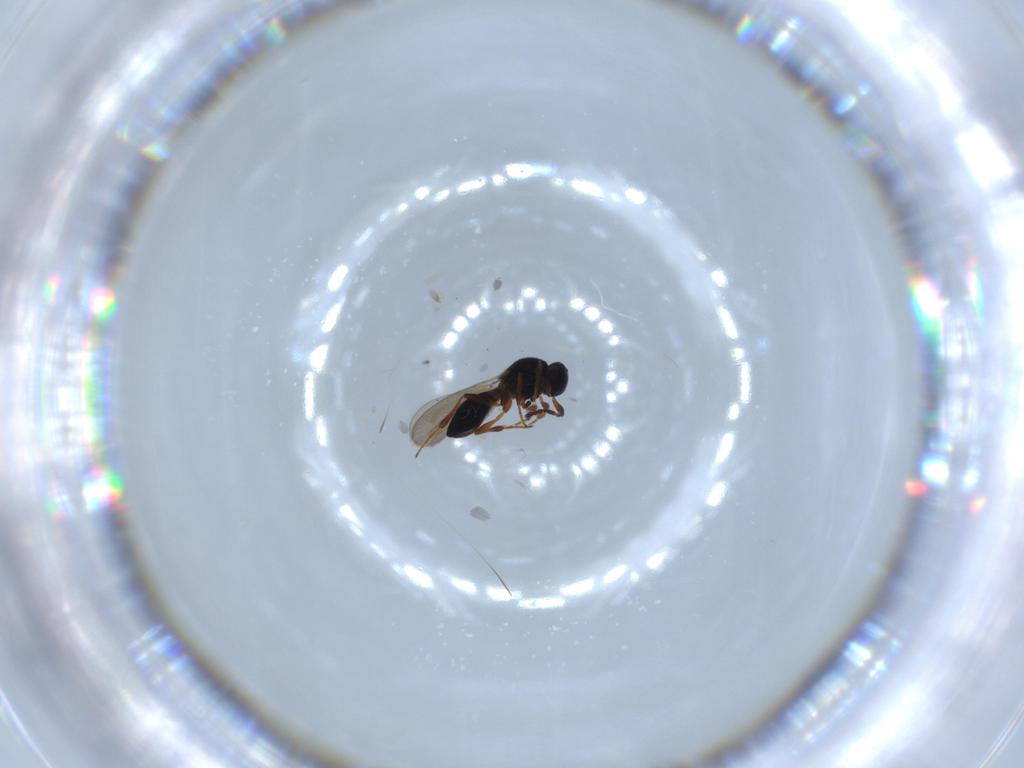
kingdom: Animalia
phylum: Arthropoda
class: Insecta
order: Hymenoptera
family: Platygastridae
